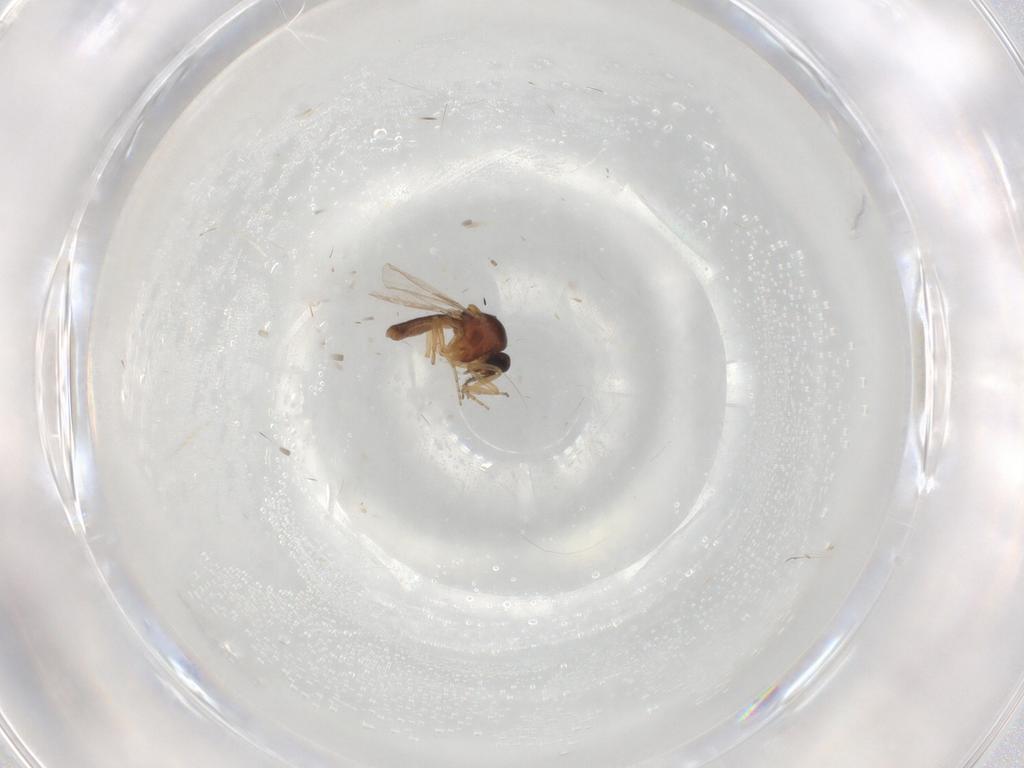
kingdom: Animalia
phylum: Arthropoda
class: Insecta
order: Diptera
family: Ceratopogonidae
